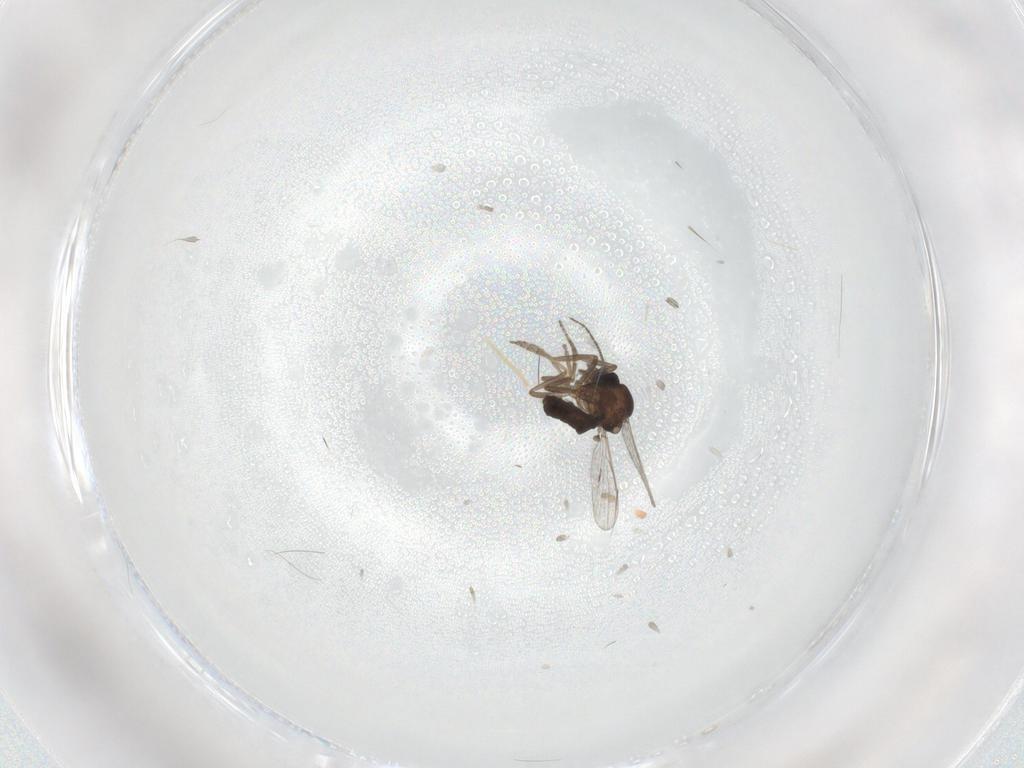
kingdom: Animalia
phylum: Arthropoda
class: Insecta
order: Diptera
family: Ceratopogonidae
